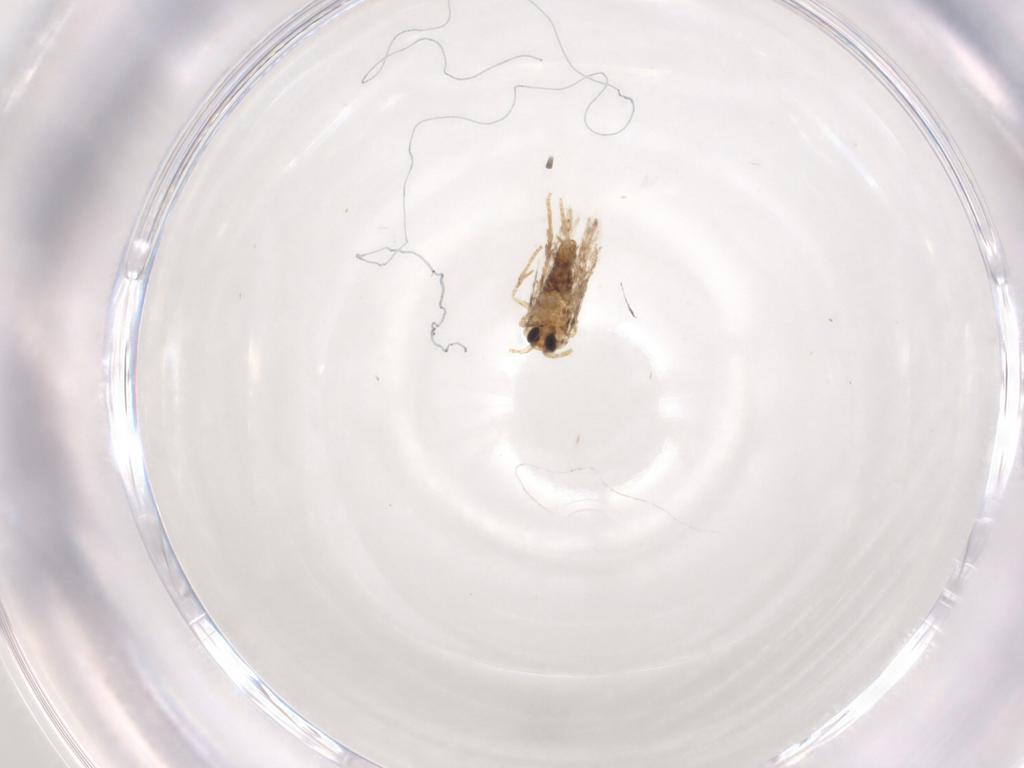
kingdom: Animalia
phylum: Arthropoda
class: Insecta
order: Lepidoptera
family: Nepticulidae
